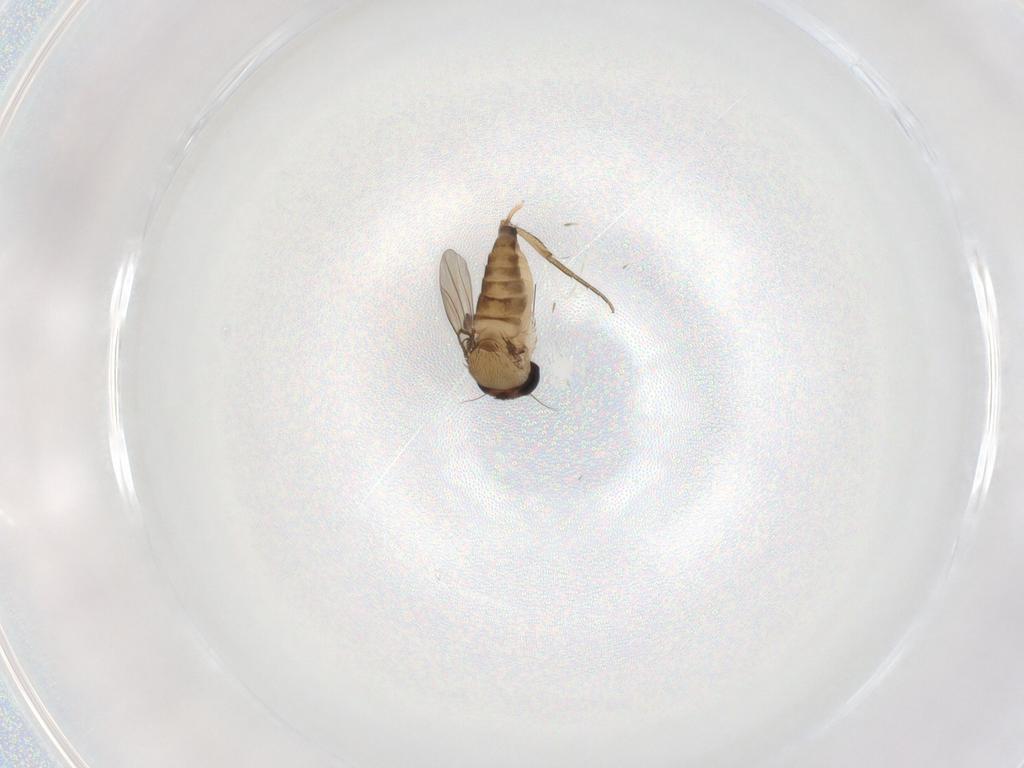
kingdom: Animalia
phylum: Arthropoda
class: Insecta
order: Diptera
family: Phoridae
